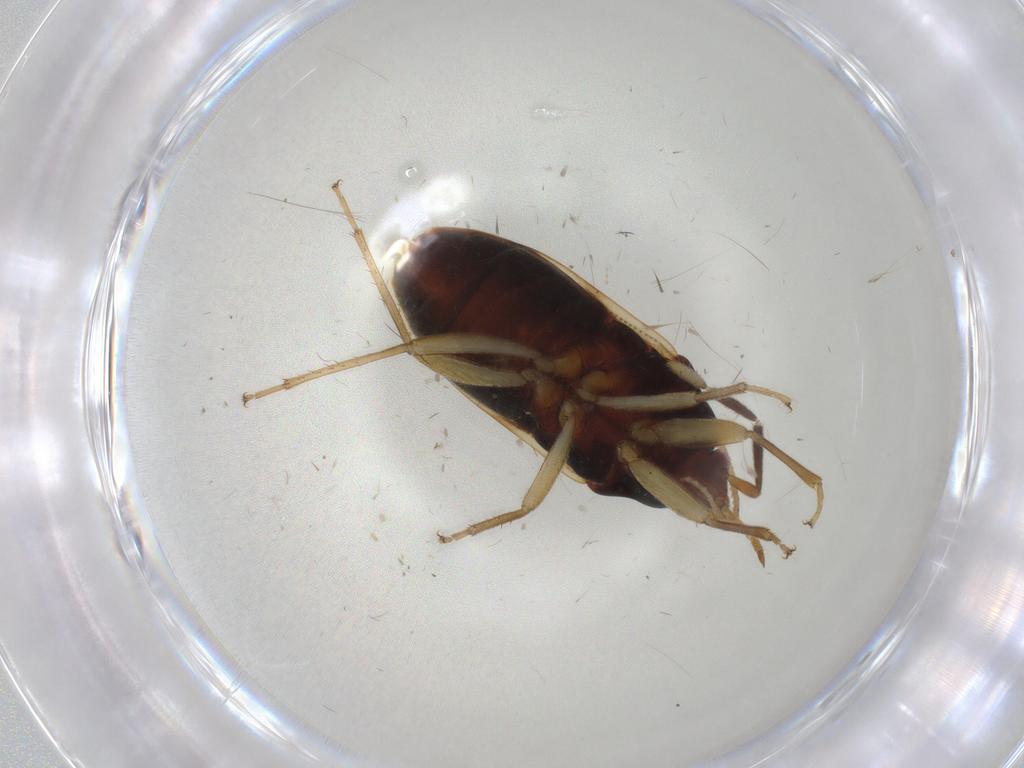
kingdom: Animalia
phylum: Arthropoda
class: Insecta
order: Hemiptera
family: Rhyparochromidae
